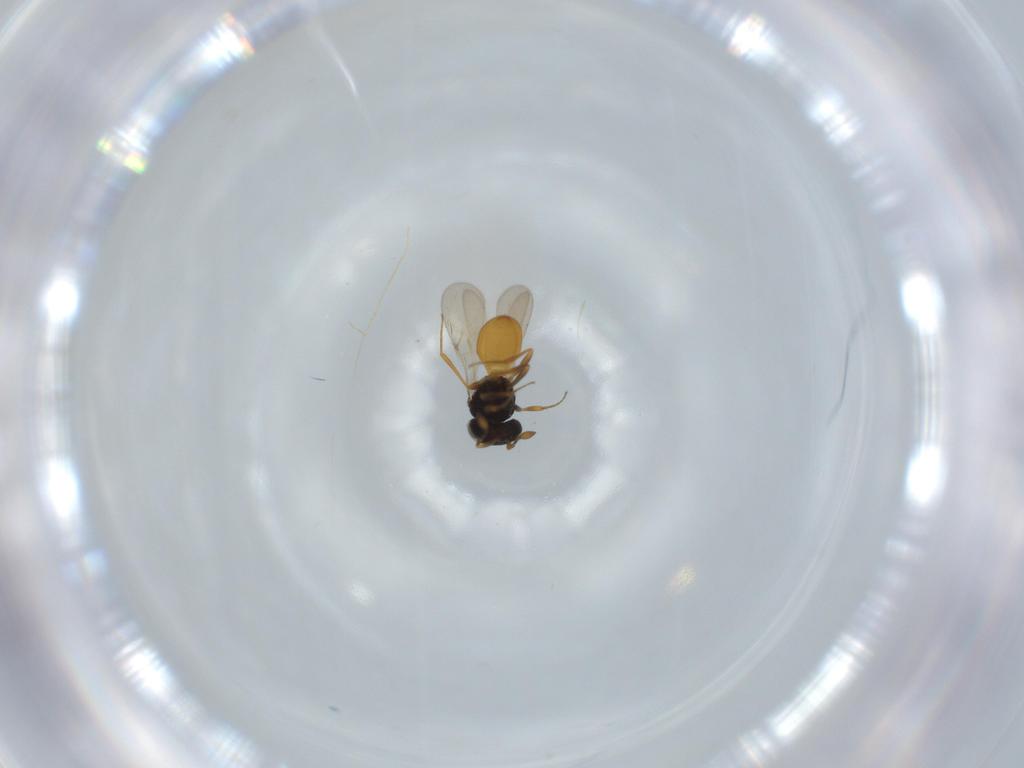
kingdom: Animalia
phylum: Arthropoda
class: Insecta
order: Hymenoptera
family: Scelionidae
